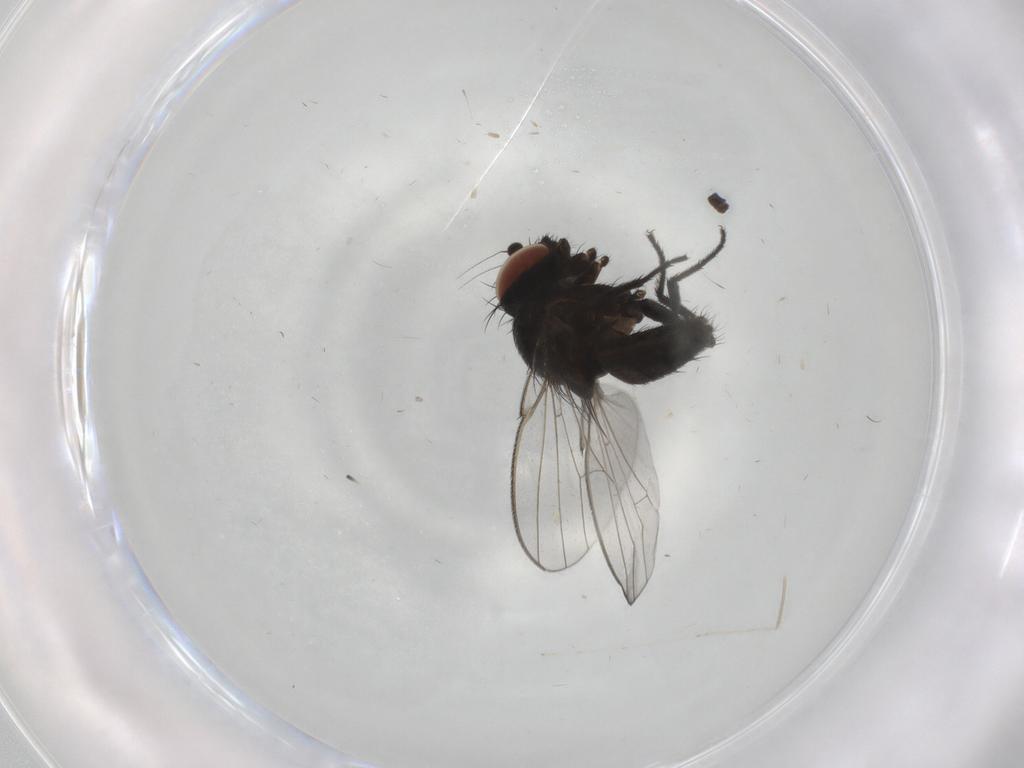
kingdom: Animalia
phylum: Arthropoda
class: Insecta
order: Diptera
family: Milichiidae
